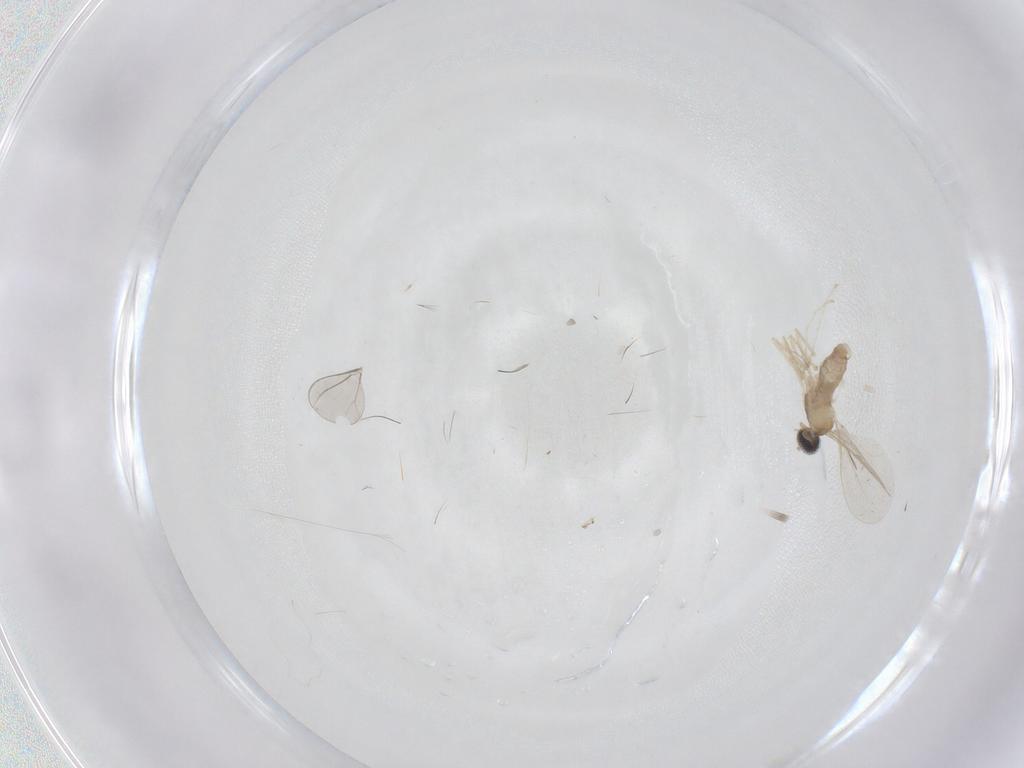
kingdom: Animalia
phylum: Arthropoda
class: Insecta
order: Diptera
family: Cecidomyiidae
